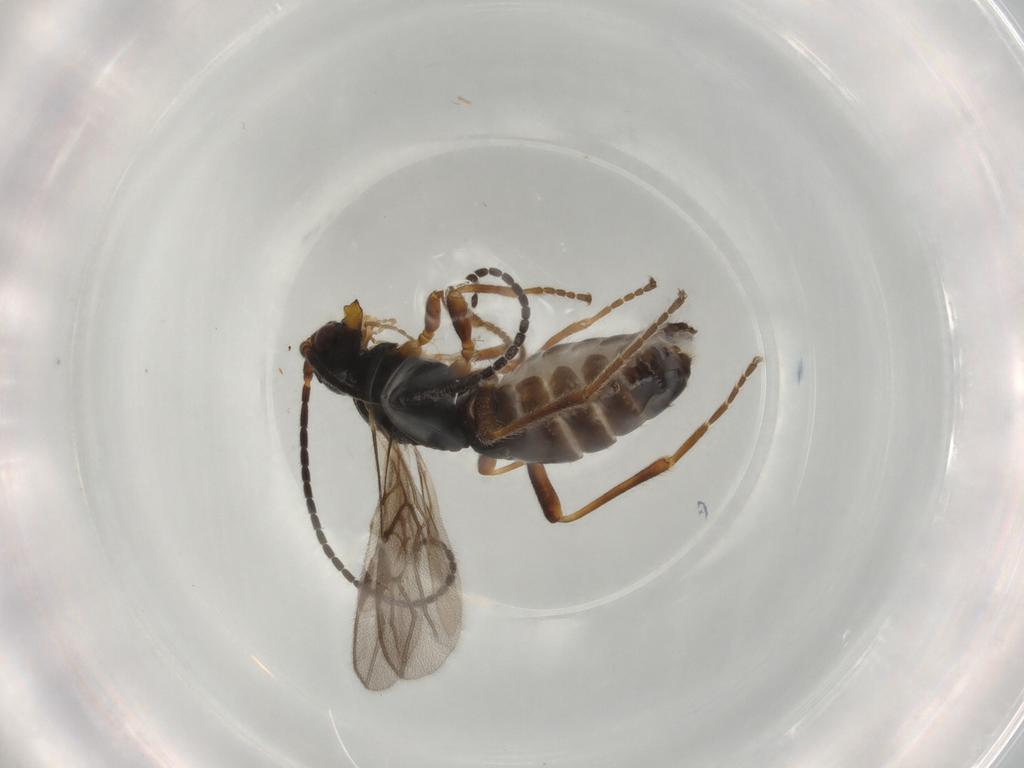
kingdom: Animalia
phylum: Arthropoda
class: Insecta
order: Hymenoptera
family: Braconidae
